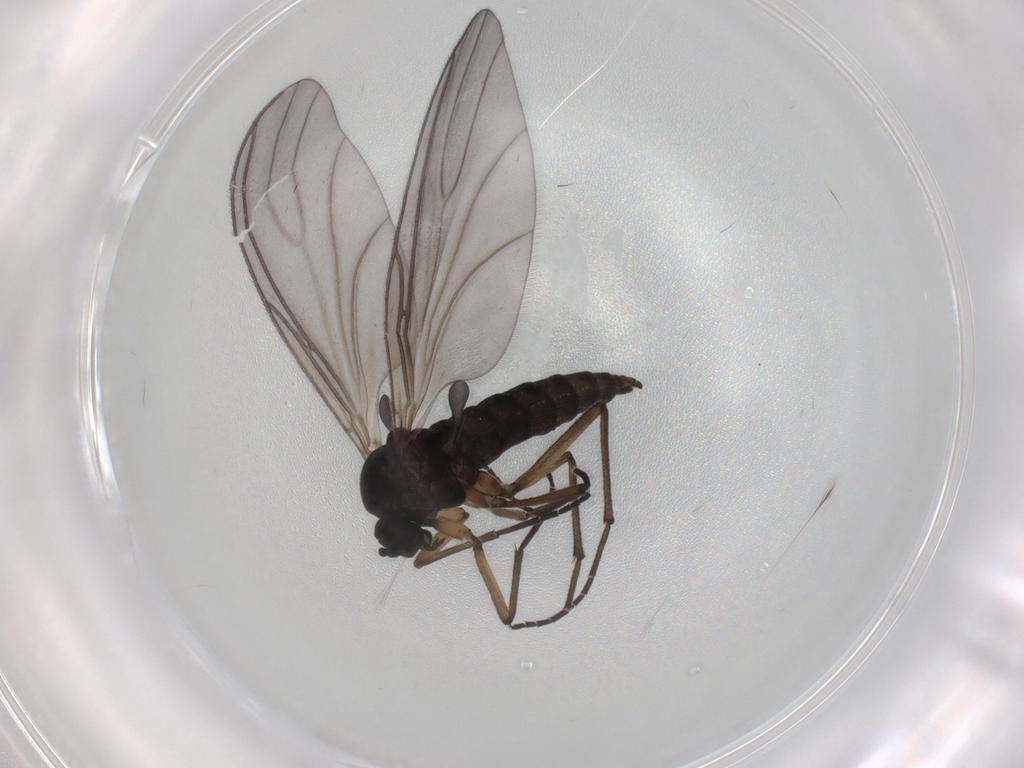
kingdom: Animalia
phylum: Arthropoda
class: Insecta
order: Diptera
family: Sciaridae
